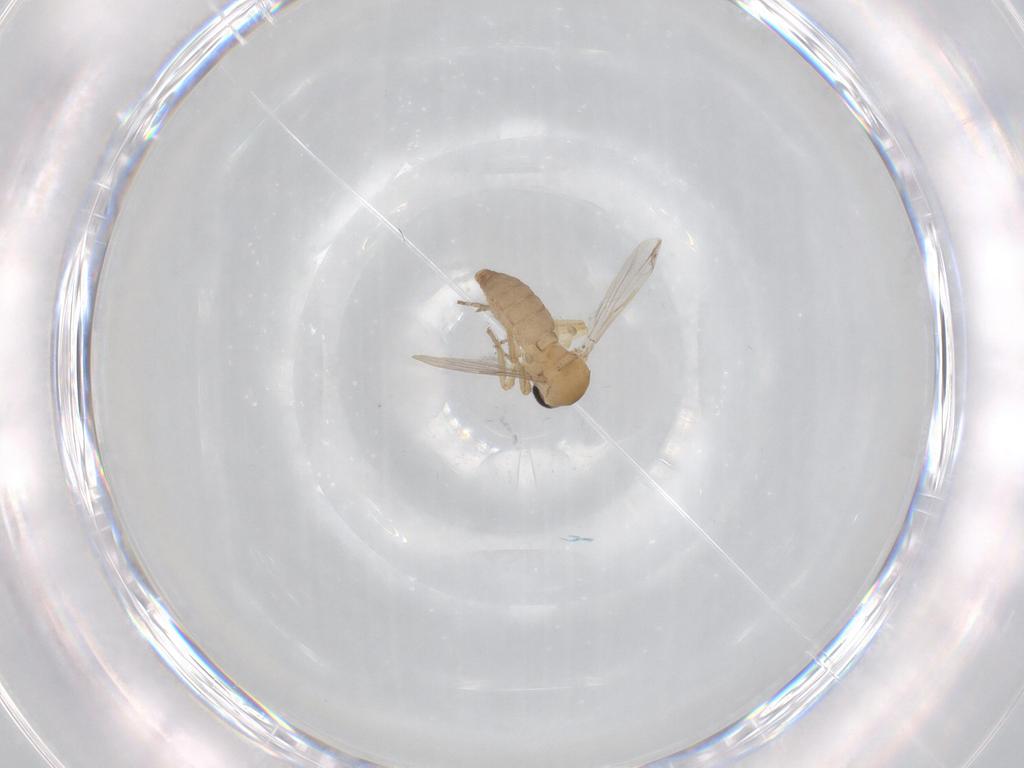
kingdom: Animalia
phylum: Arthropoda
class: Insecta
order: Diptera
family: Ceratopogonidae
